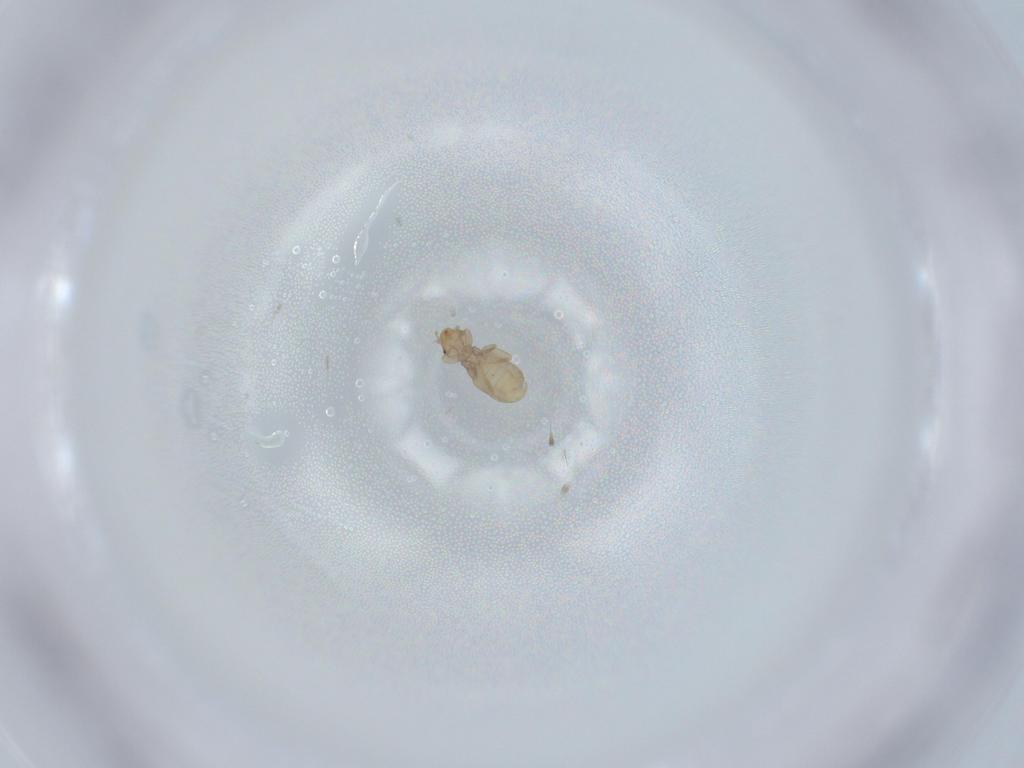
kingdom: Animalia
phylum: Arthropoda
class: Insecta
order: Psocodea
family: Liposcelididae
